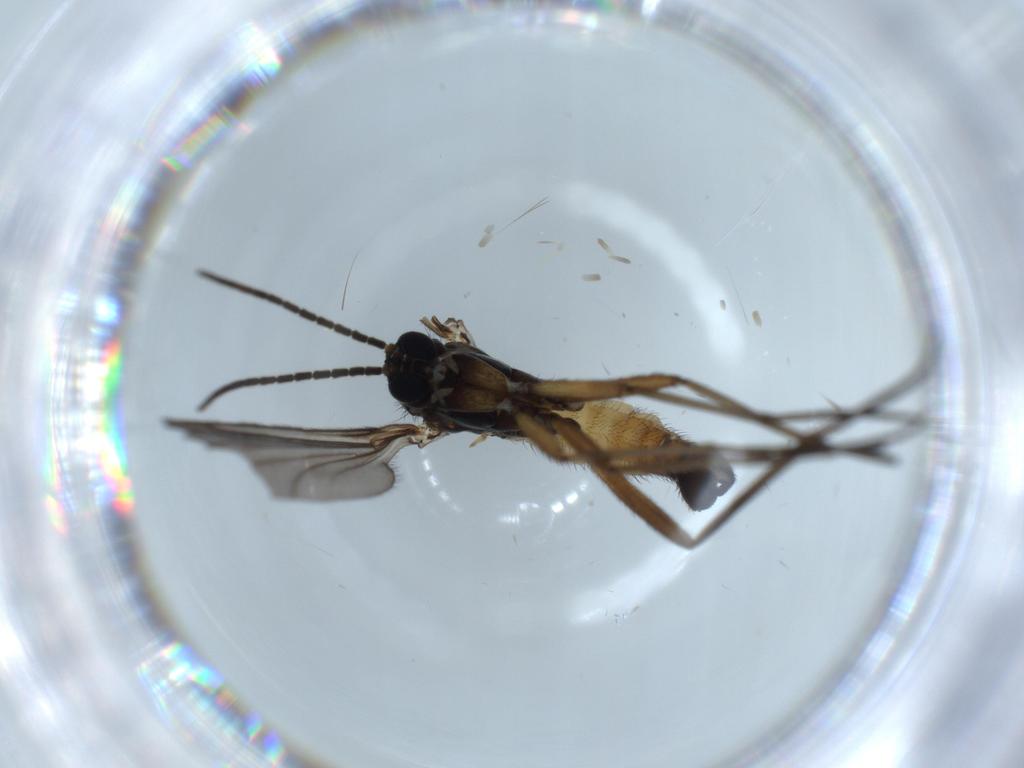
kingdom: Animalia
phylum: Arthropoda
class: Insecta
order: Diptera
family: Sciaridae
